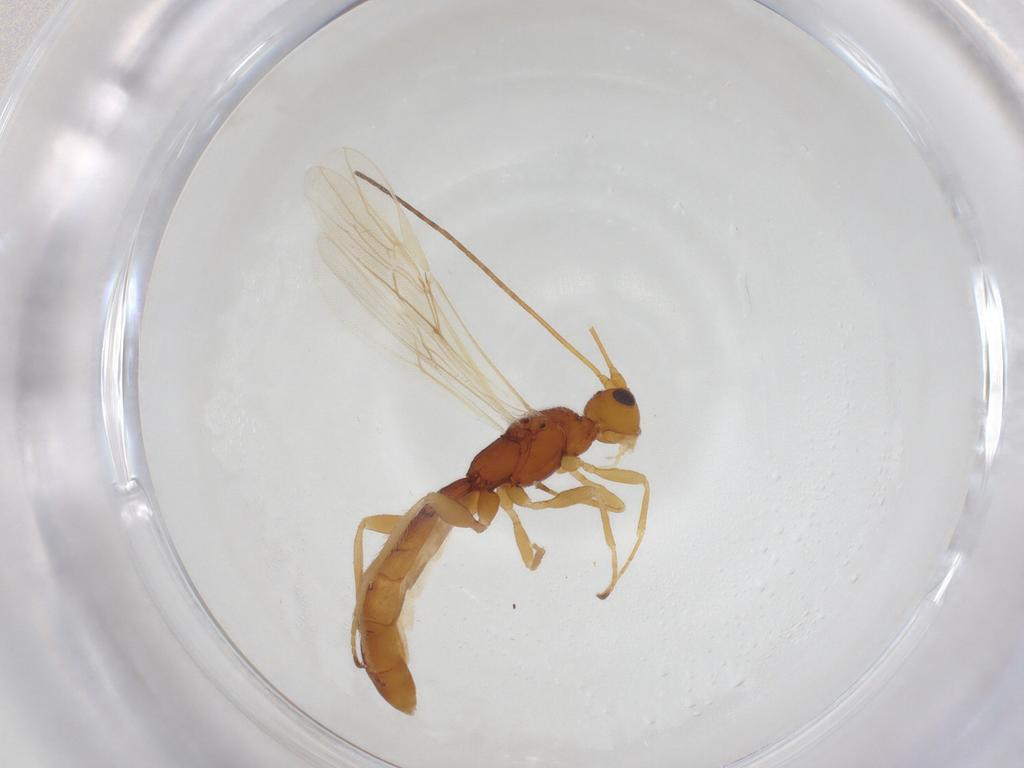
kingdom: Animalia
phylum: Arthropoda
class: Insecta
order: Hymenoptera
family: Braconidae
